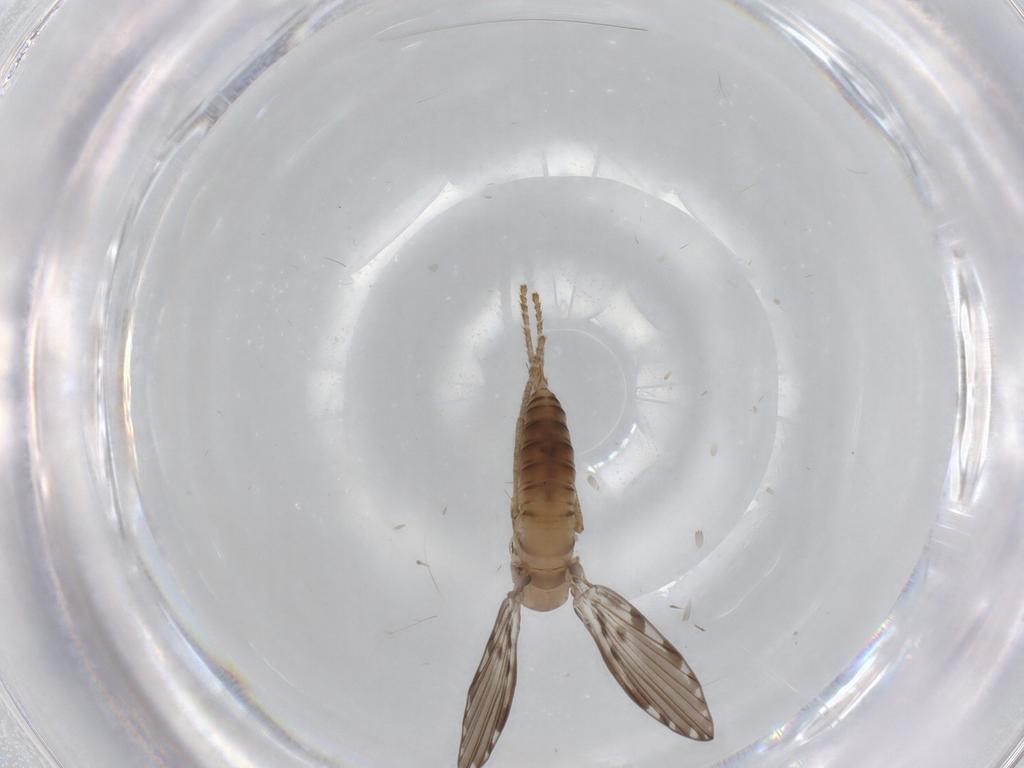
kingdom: Animalia
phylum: Arthropoda
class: Insecta
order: Diptera
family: Psychodidae
